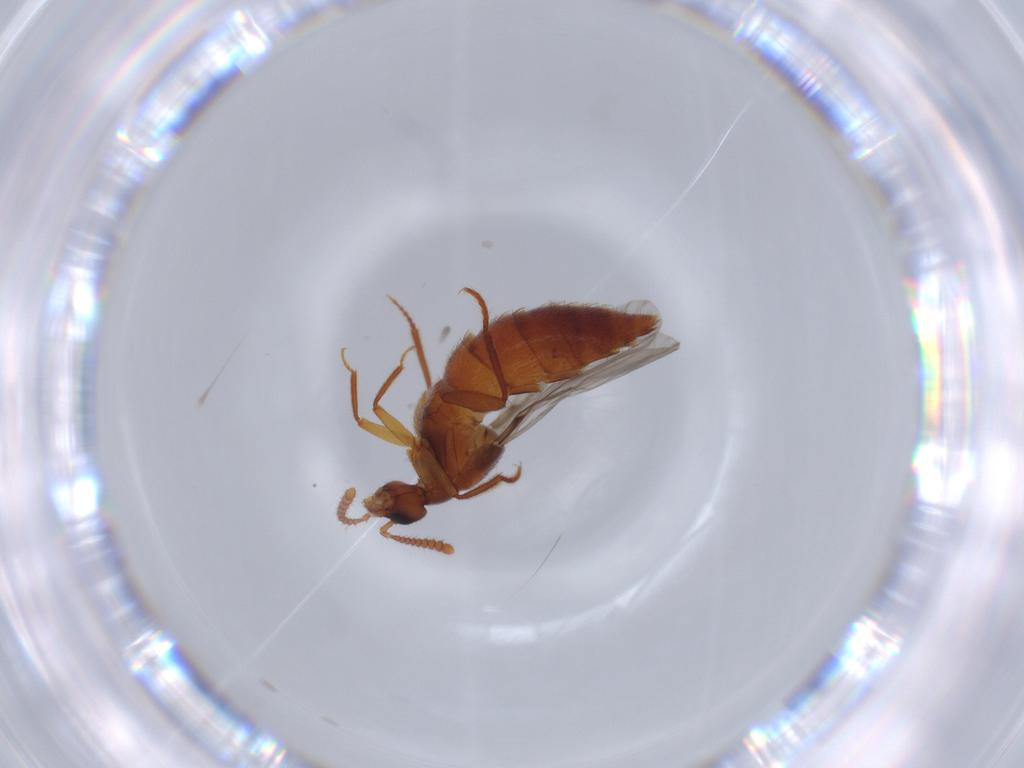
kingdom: Animalia
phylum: Arthropoda
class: Insecta
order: Coleoptera
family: Staphylinidae
